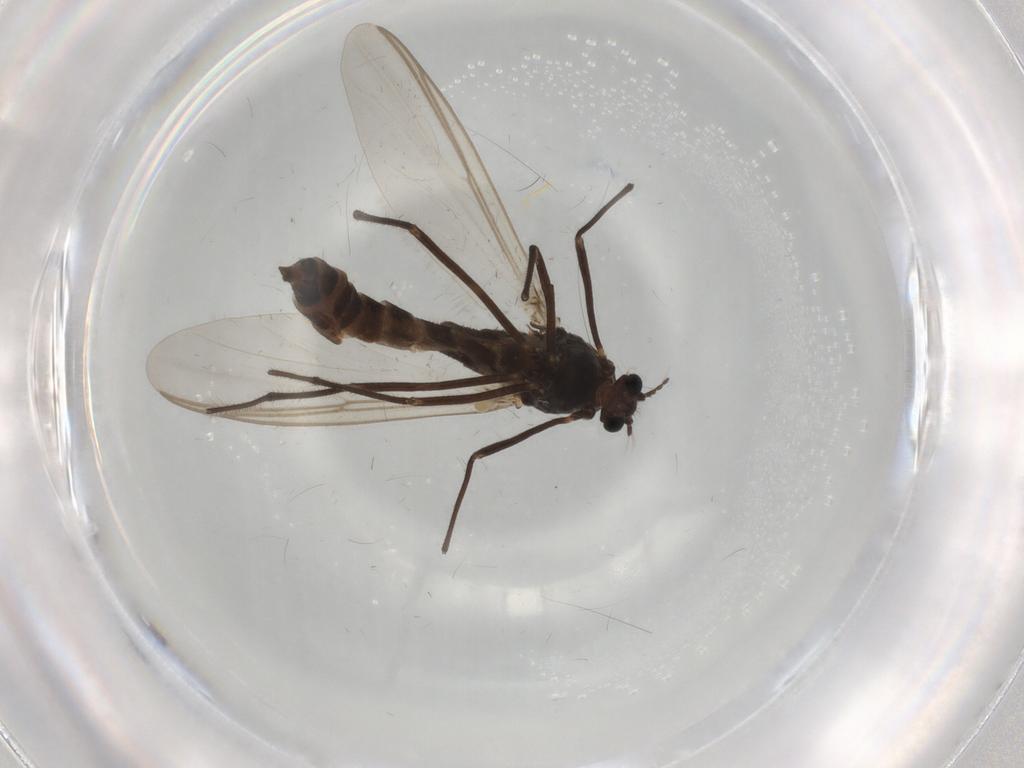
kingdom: Animalia
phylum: Arthropoda
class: Insecta
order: Diptera
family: Chironomidae
